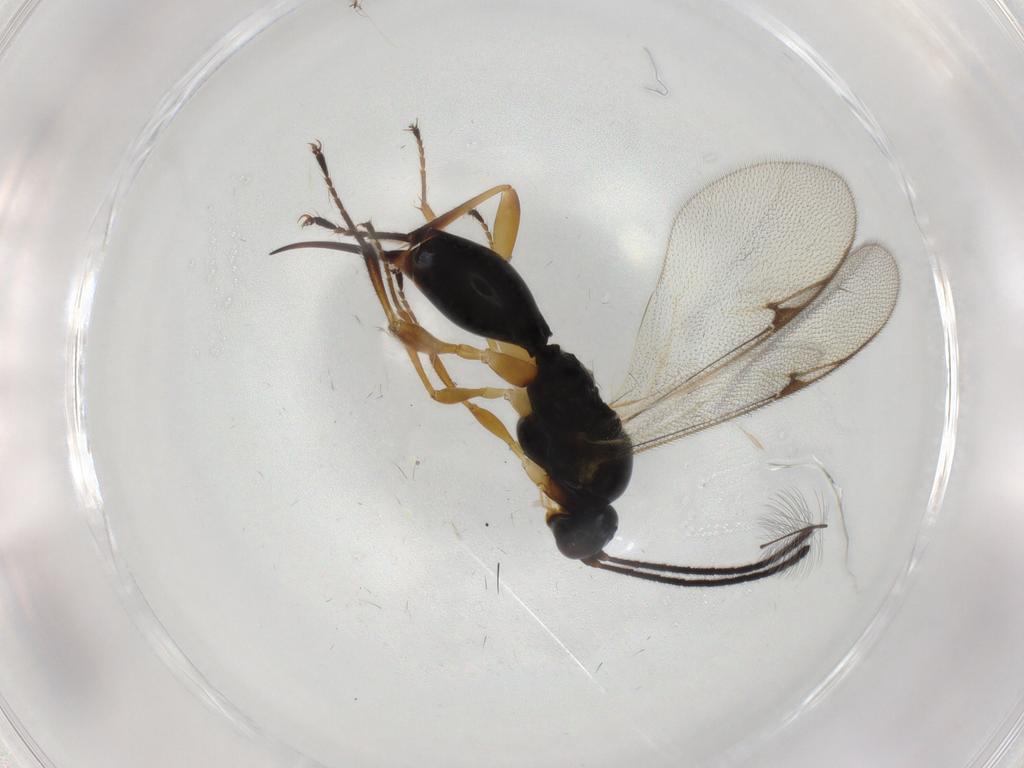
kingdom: Animalia
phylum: Arthropoda
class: Insecta
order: Hymenoptera
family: Proctotrupidae
